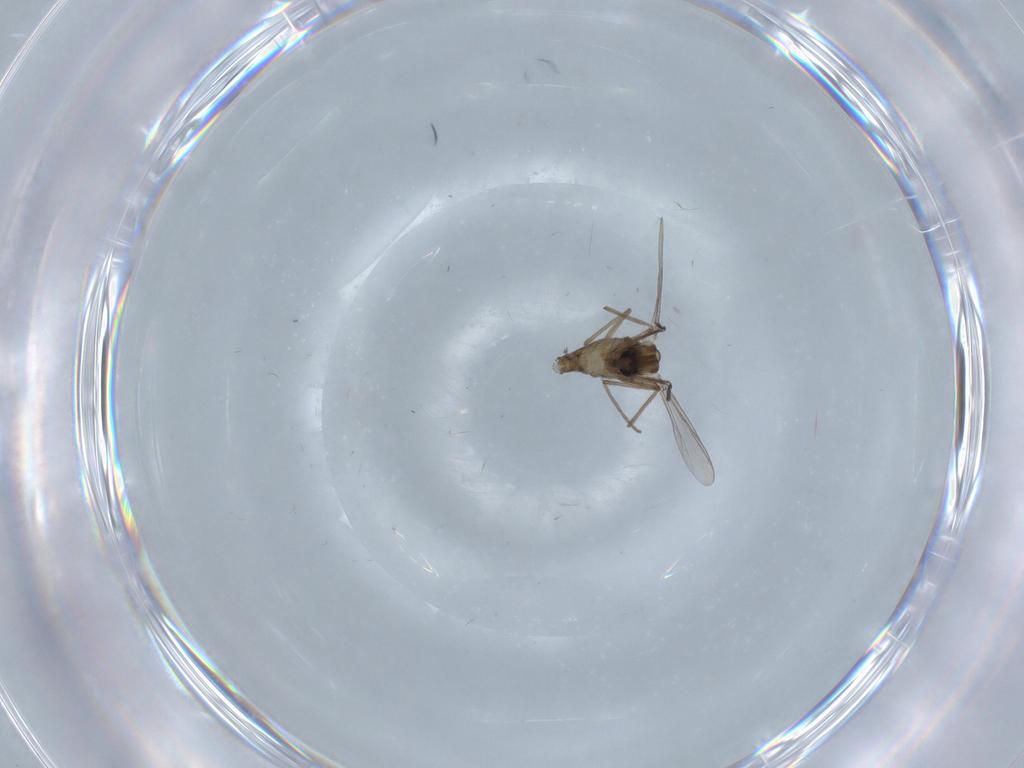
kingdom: Animalia
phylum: Arthropoda
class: Insecta
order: Diptera
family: Chironomidae
